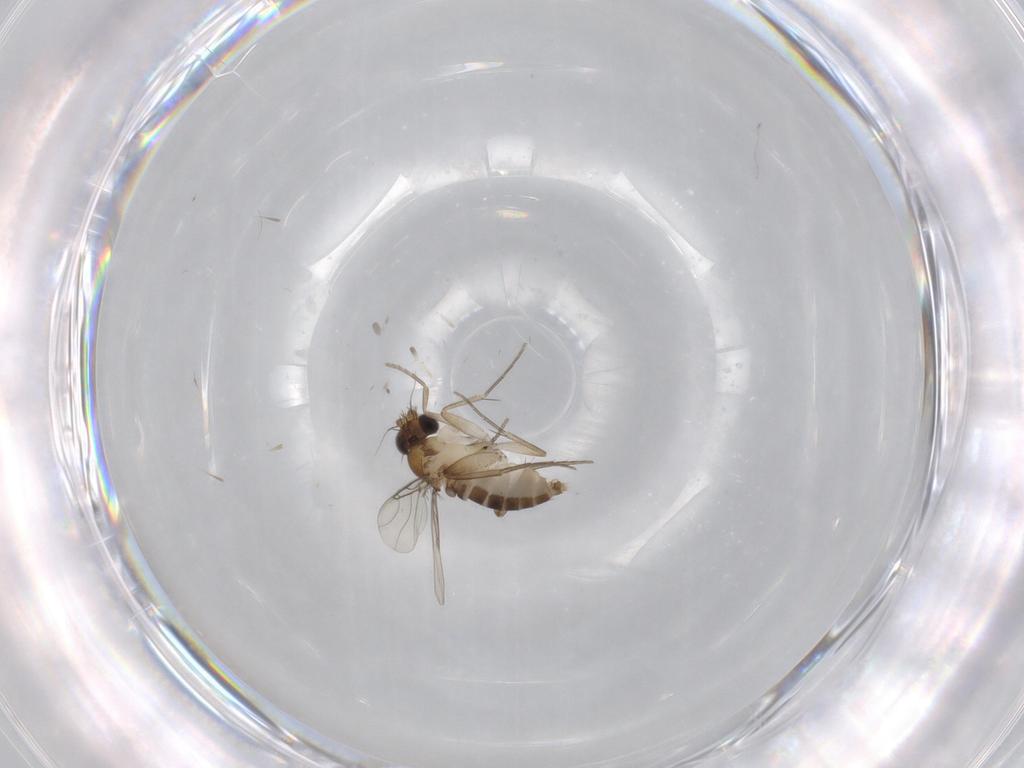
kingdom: Animalia
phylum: Arthropoda
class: Insecta
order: Diptera
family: Phoridae
